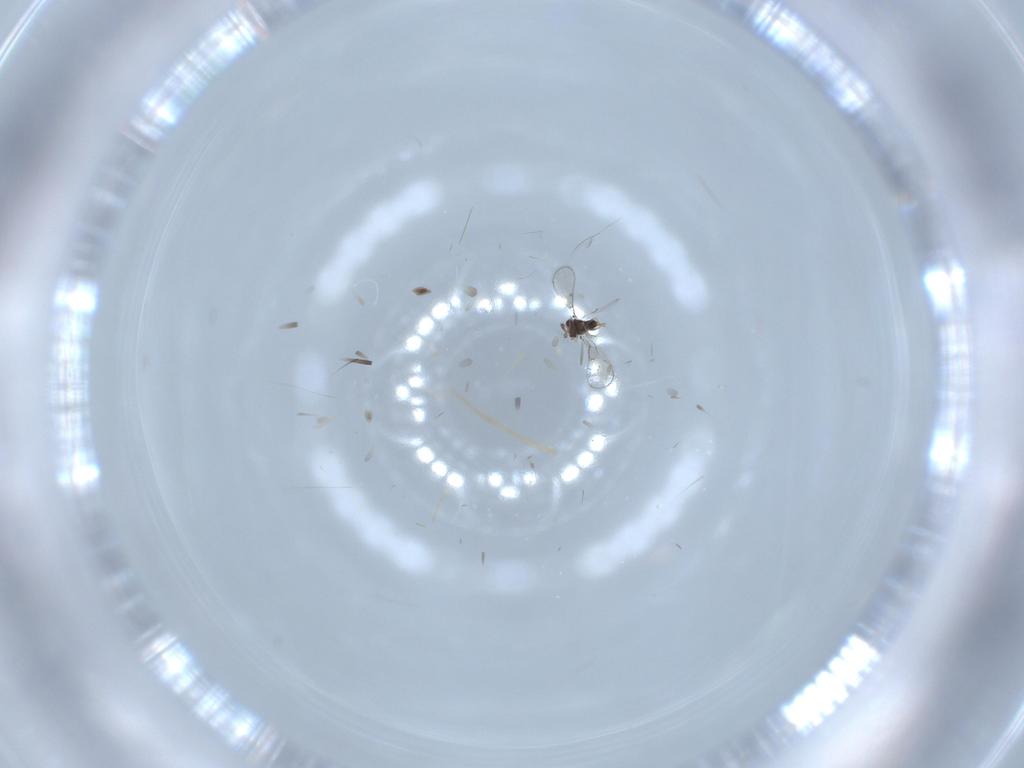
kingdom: Animalia
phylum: Arthropoda
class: Insecta
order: Hymenoptera
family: Trichogrammatidae
